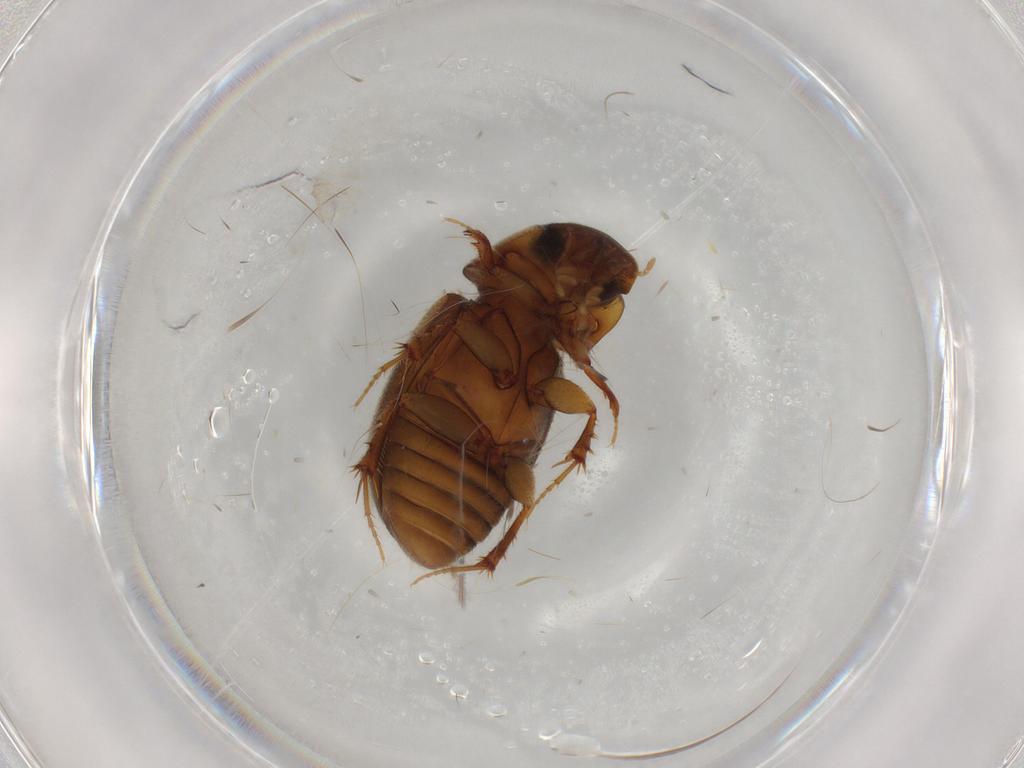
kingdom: Animalia
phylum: Arthropoda
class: Insecta
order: Coleoptera
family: Scarabaeidae
